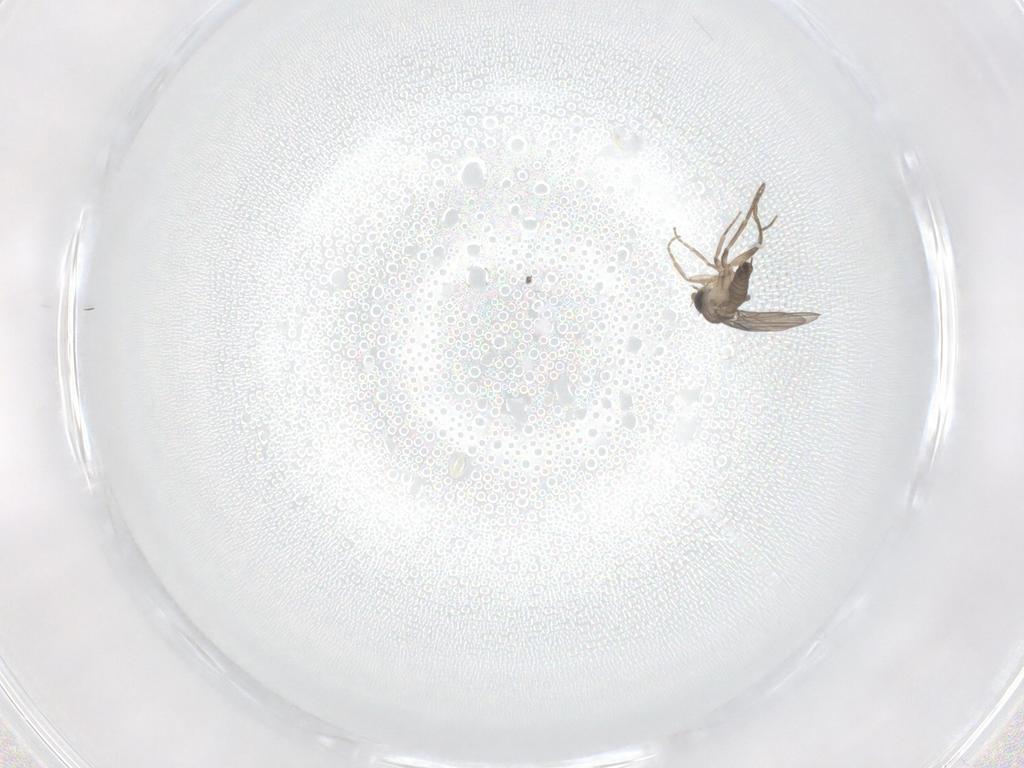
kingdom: Animalia
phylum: Arthropoda
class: Insecta
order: Diptera
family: Phoridae
